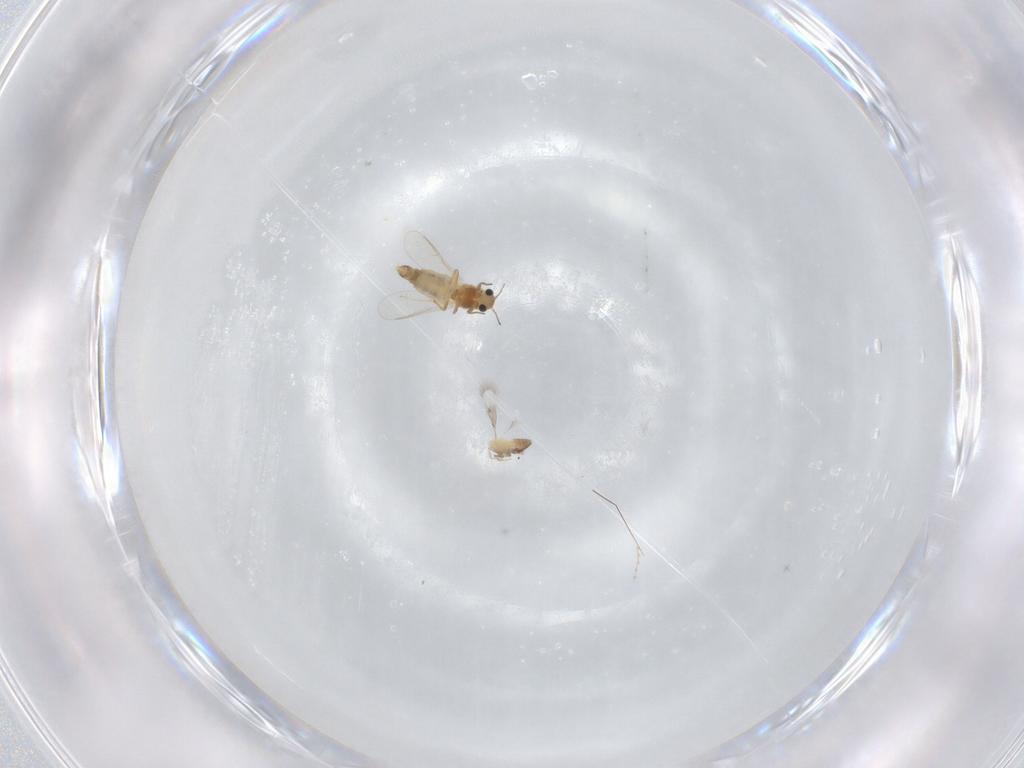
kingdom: Animalia
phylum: Arthropoda
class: Insecta
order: Diptera
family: Chironomidae
